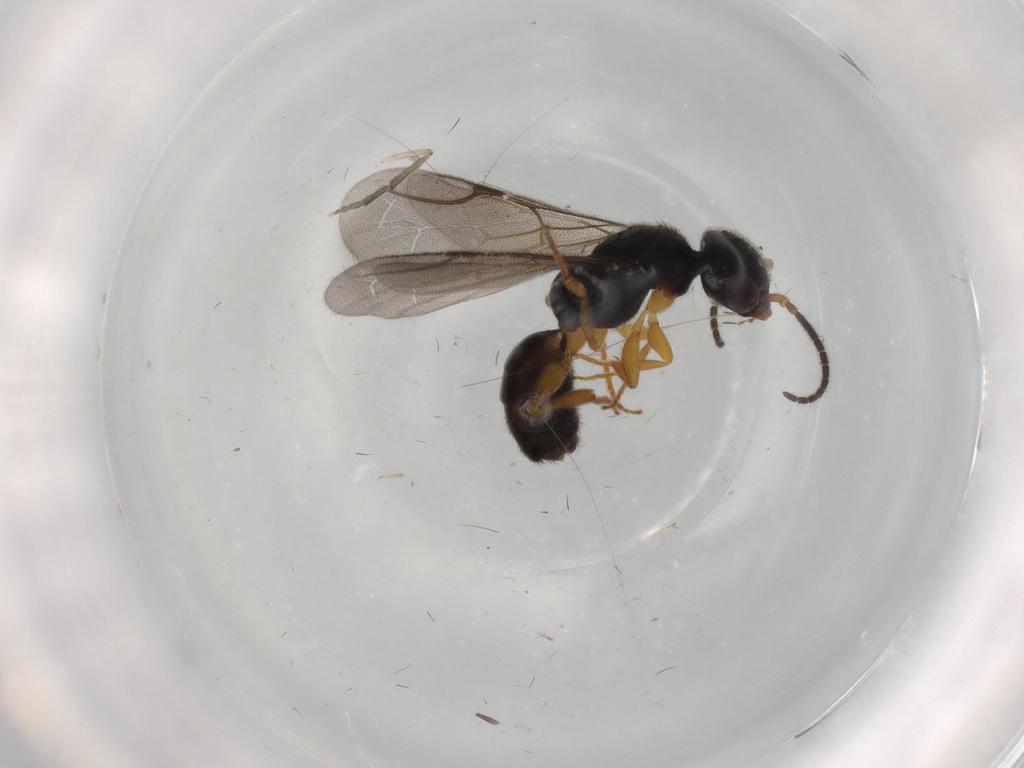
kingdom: Animalia
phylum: Arthropoda
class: Insecta
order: Hymenoptera
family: Bethylidae
